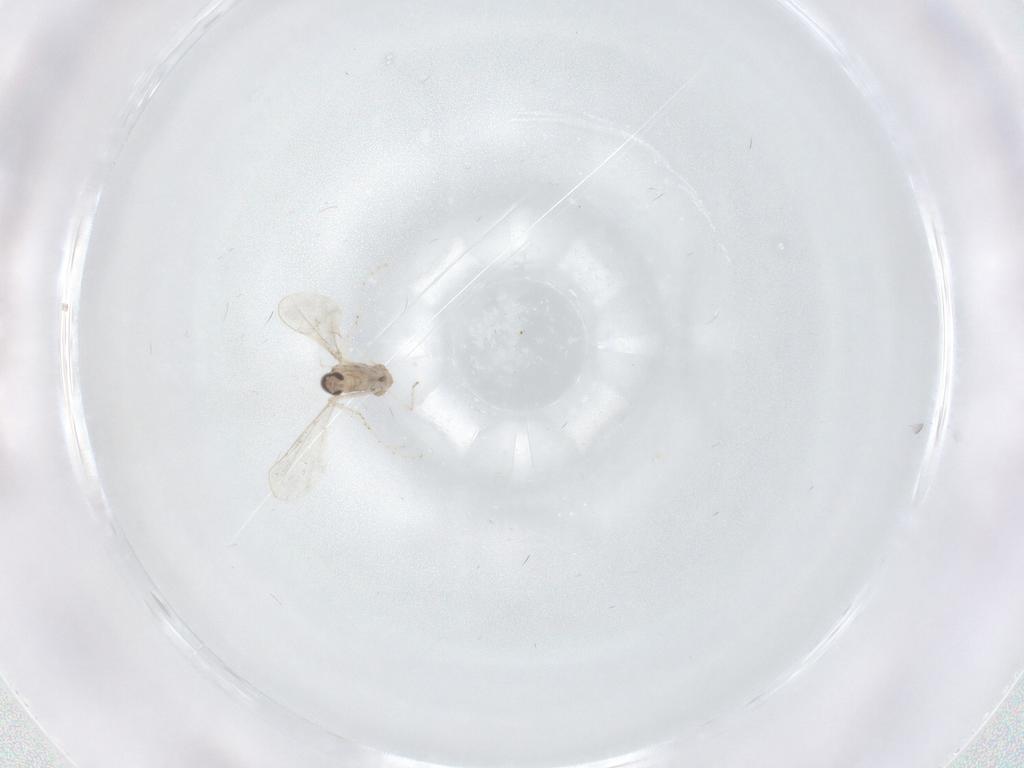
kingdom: Animalia
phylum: Arthropoda
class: Insecta
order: Diptera
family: Cecidomyiidae
